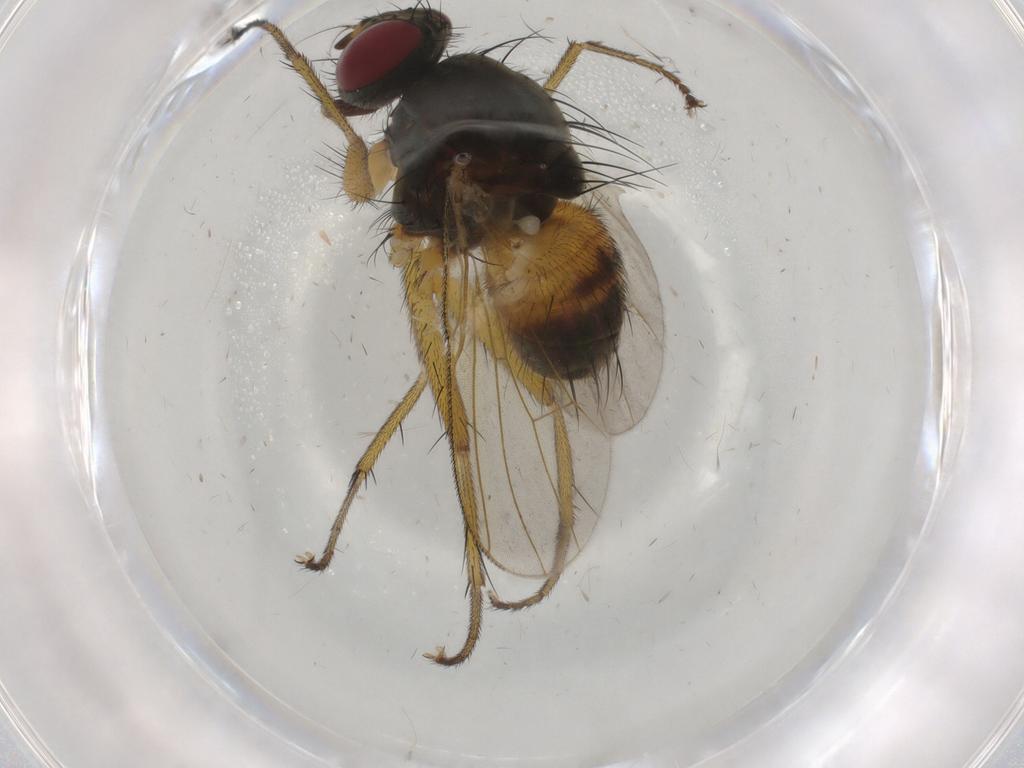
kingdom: Animalia
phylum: Arthropoda
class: Insecta
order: Diptera
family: Muscidae
